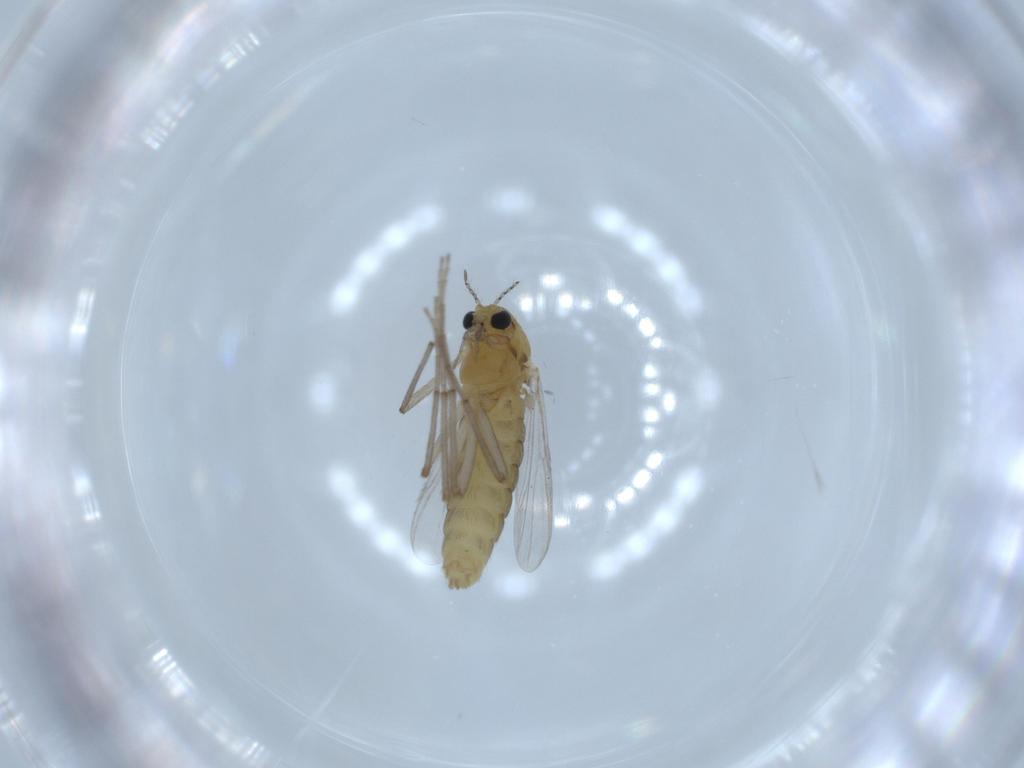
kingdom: Animalia
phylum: Arthropoda
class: Insecta
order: Diptera
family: Chironomidae
